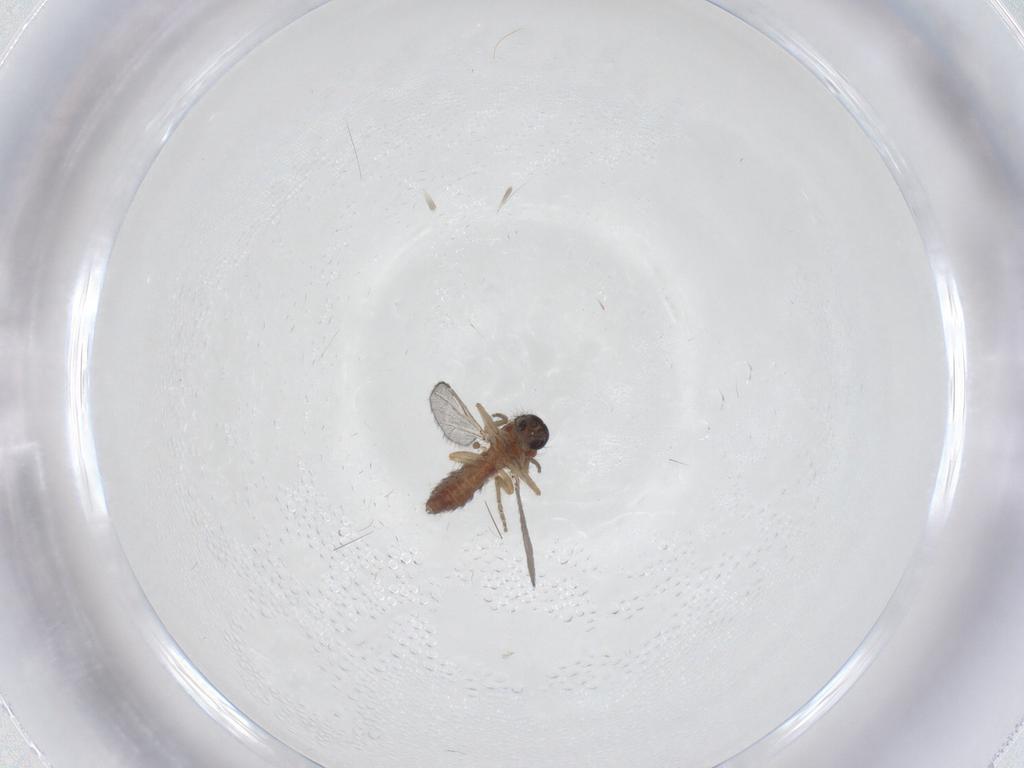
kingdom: Animalia
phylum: Arthropoda
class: Insecta
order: Diptera
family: Ceratopogonidae
